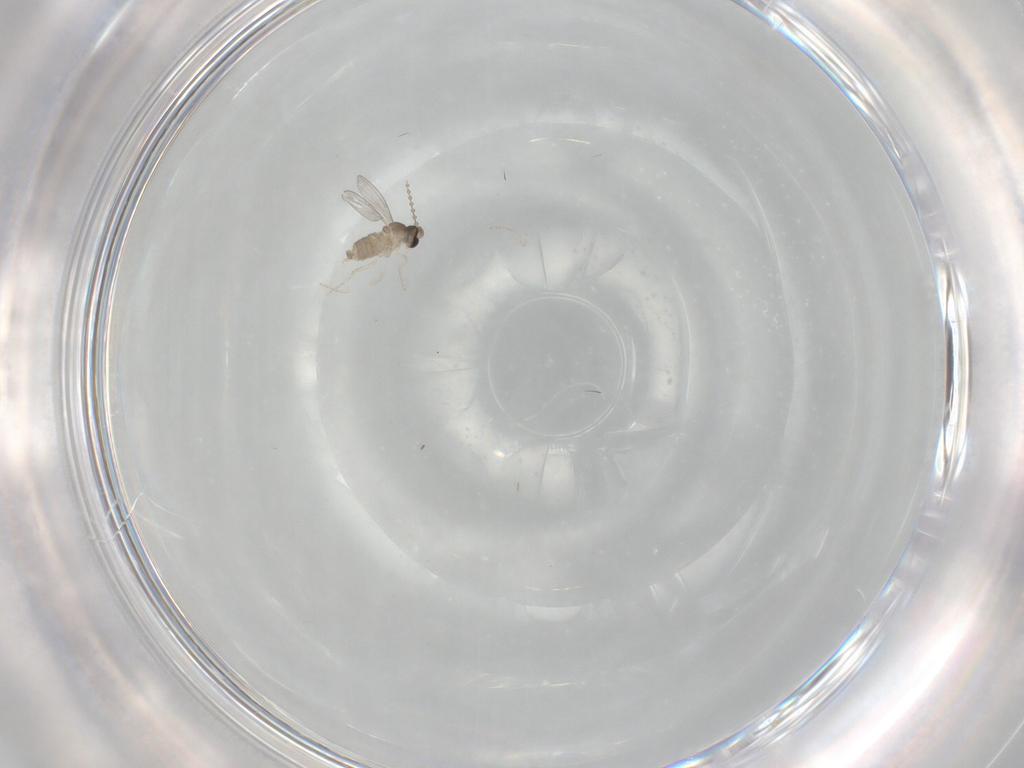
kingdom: Animalia
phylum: Arthropoda
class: Insecta
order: Diptera
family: Cecidomyiidae
